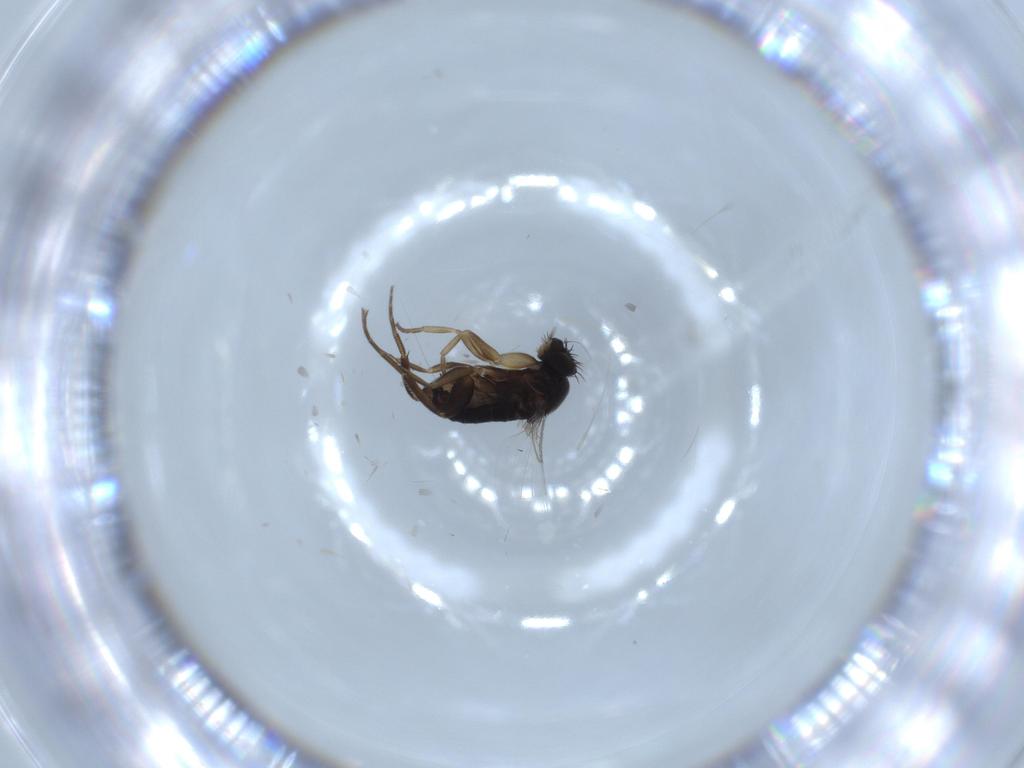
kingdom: Animalia
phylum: Arthropoda
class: Insecta
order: Diptera
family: Phoridae
